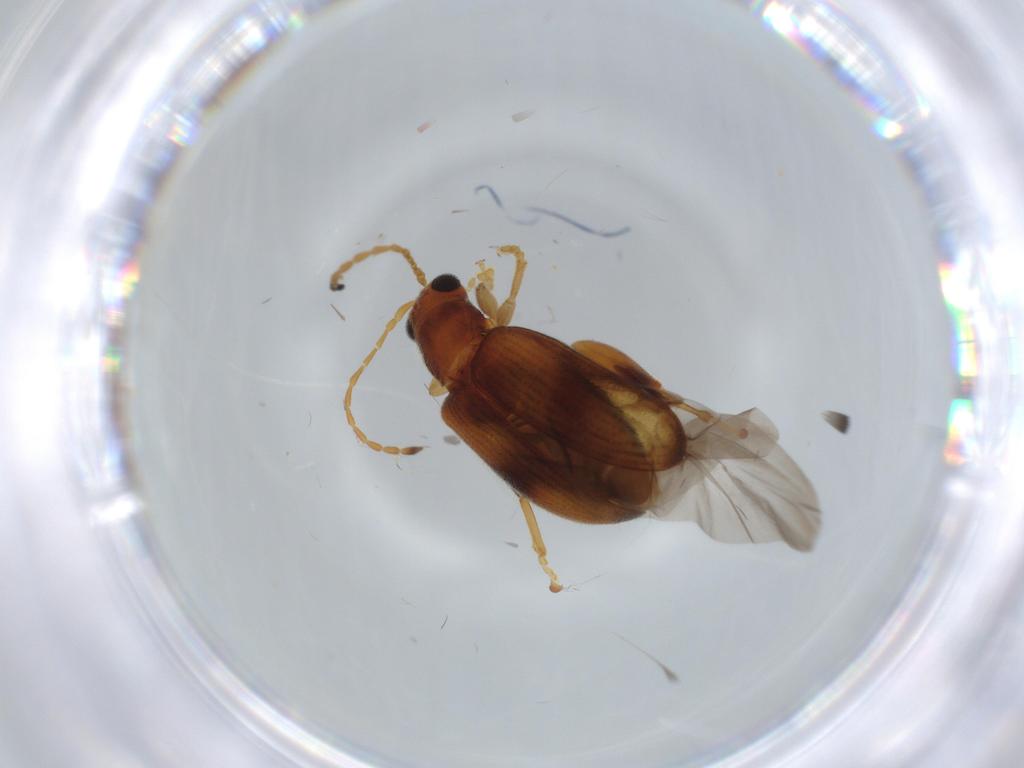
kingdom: Animalia
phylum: Arthropoda
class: Insecta
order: Coleoptera
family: Chrysomelidae
